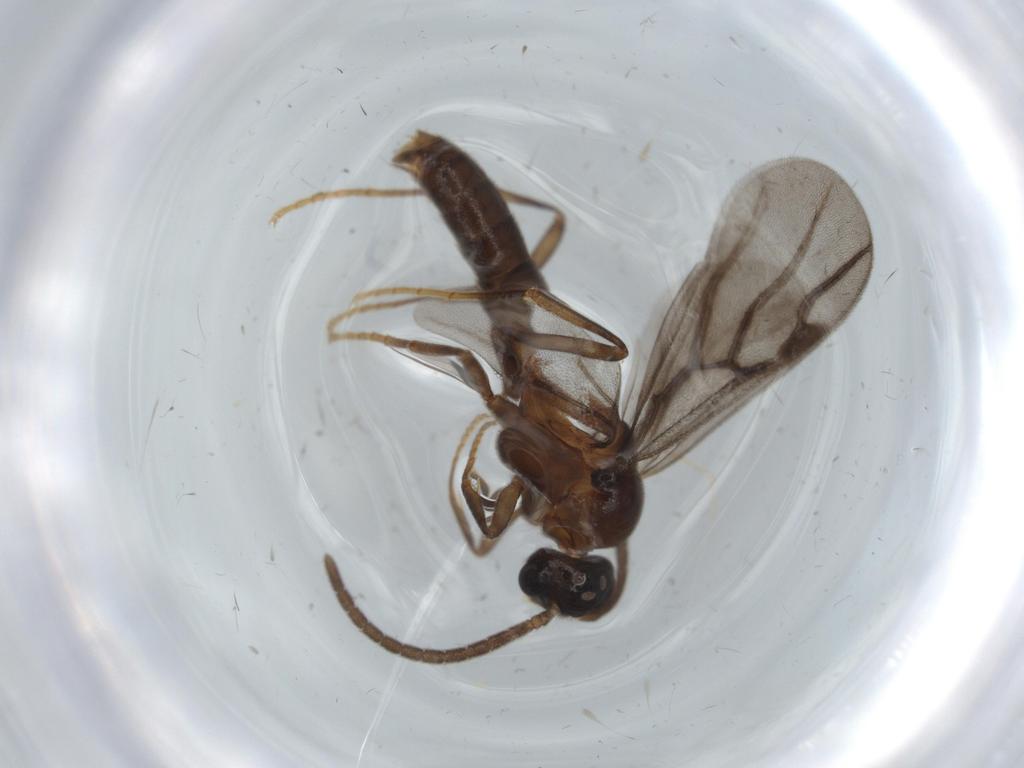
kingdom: Animalia
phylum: Arthropoda
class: Insecta
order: Hymenoptera
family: Formicidae
